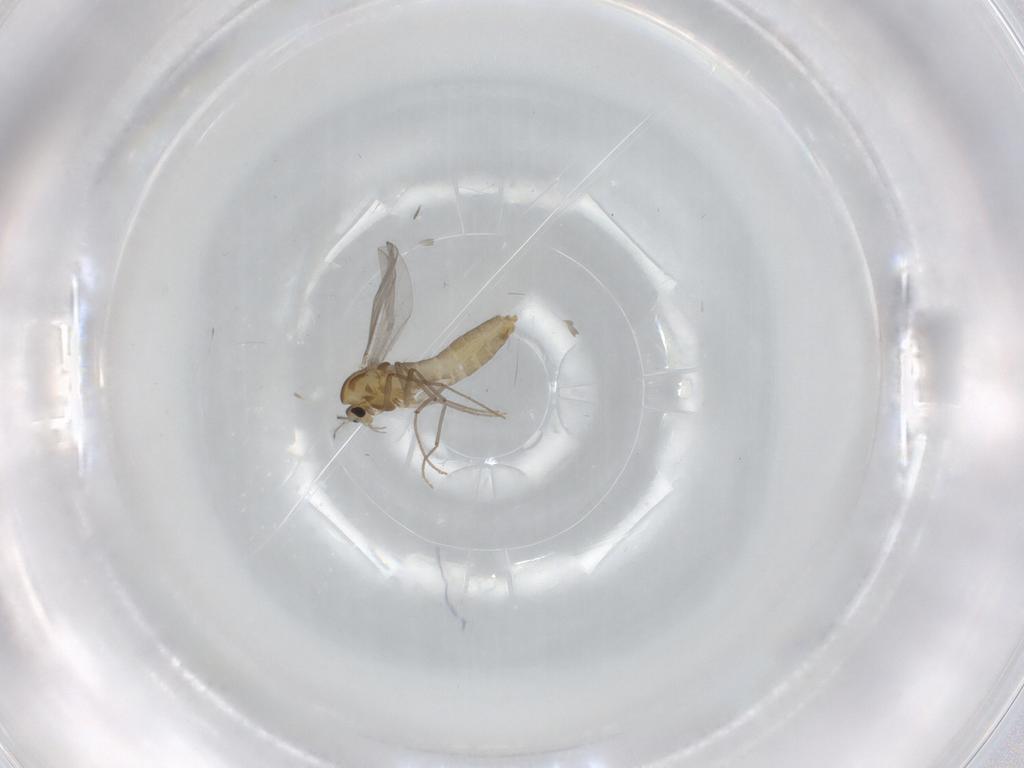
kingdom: Animalia
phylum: Arthropoda
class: Insecta
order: Diptera
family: Chironomidae
